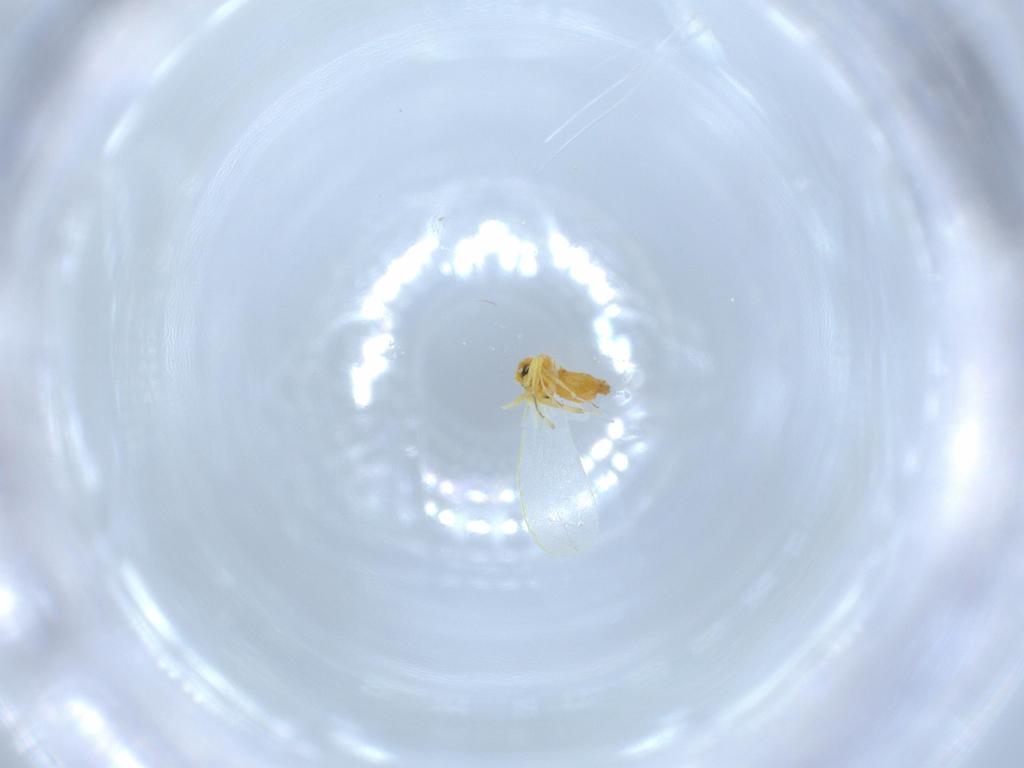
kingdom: Animalia
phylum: Arthropoda
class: Insecta
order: Hemiptera
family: Aleyrodidae
